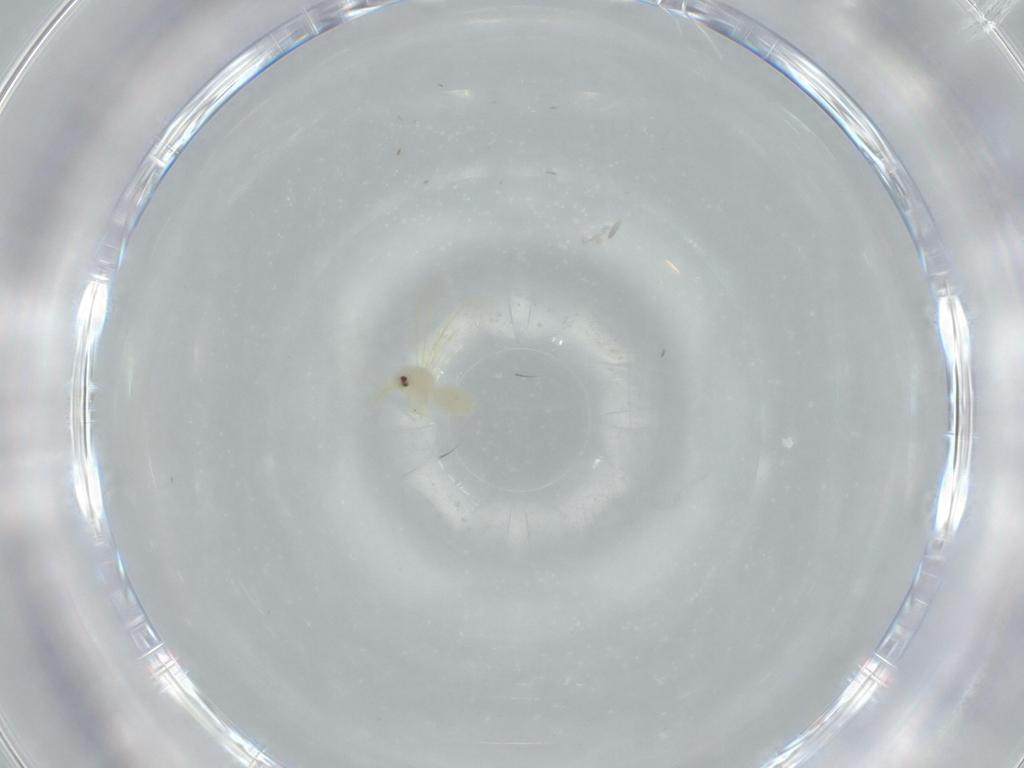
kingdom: Animalia
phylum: Arthropoda
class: Insecta
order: Hemiptera
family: Aleyrodidae
